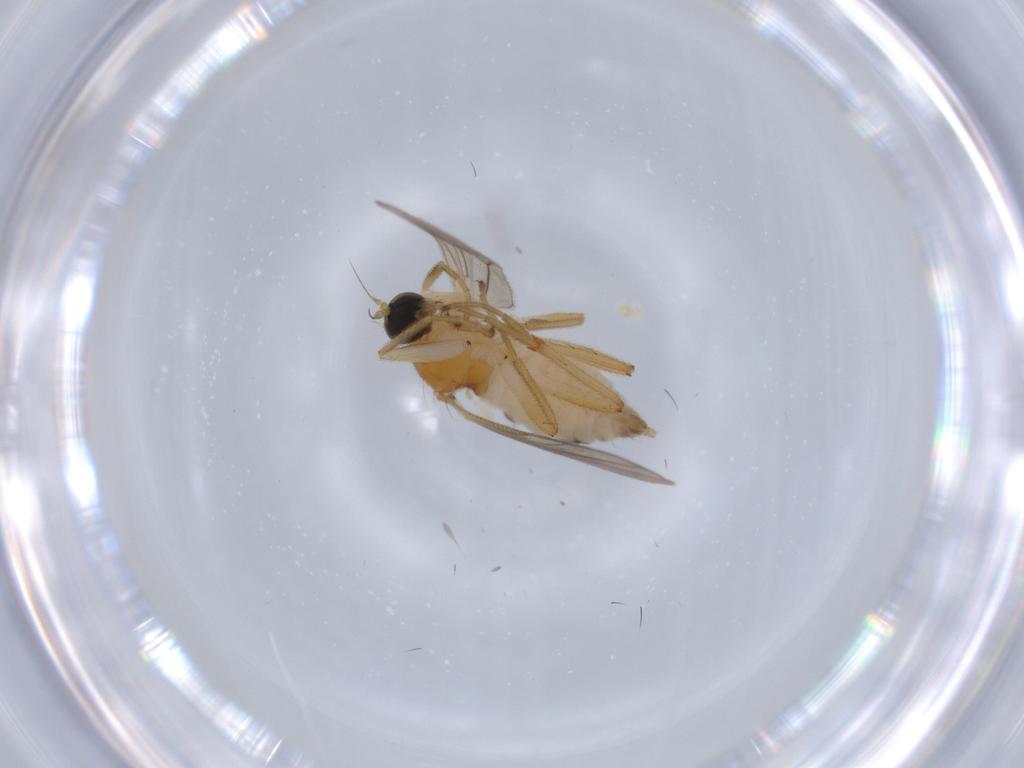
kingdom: Animalia
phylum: Arthropoda
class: Insecta
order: Diptera
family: Hybotidae
